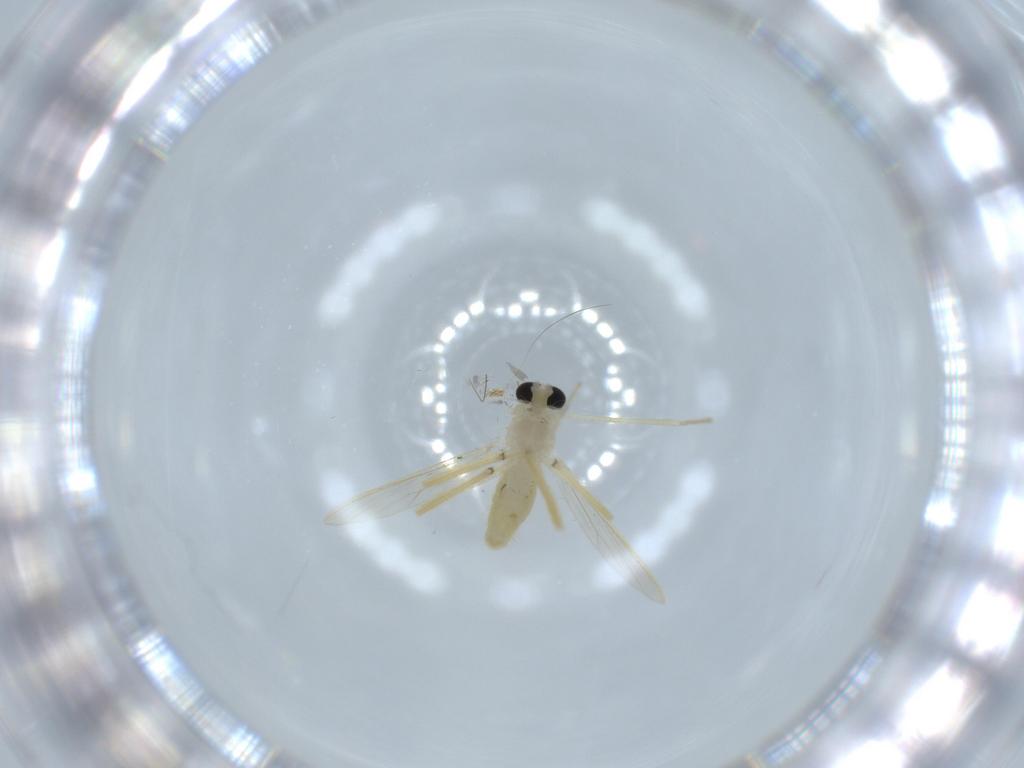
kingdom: Animalia
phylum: Arthropoda
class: Insecta
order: Diptera
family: Chironomidae
